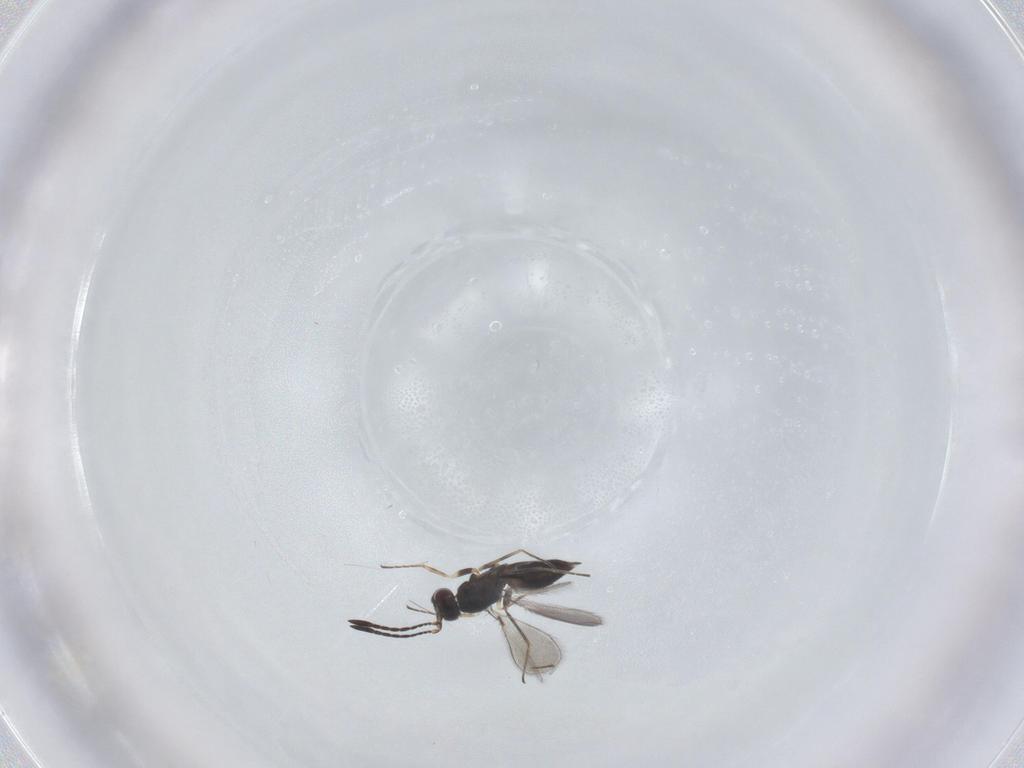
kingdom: Animalia
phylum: Arthropoda
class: Insecta
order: Hymenoptera
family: Mymaridae
